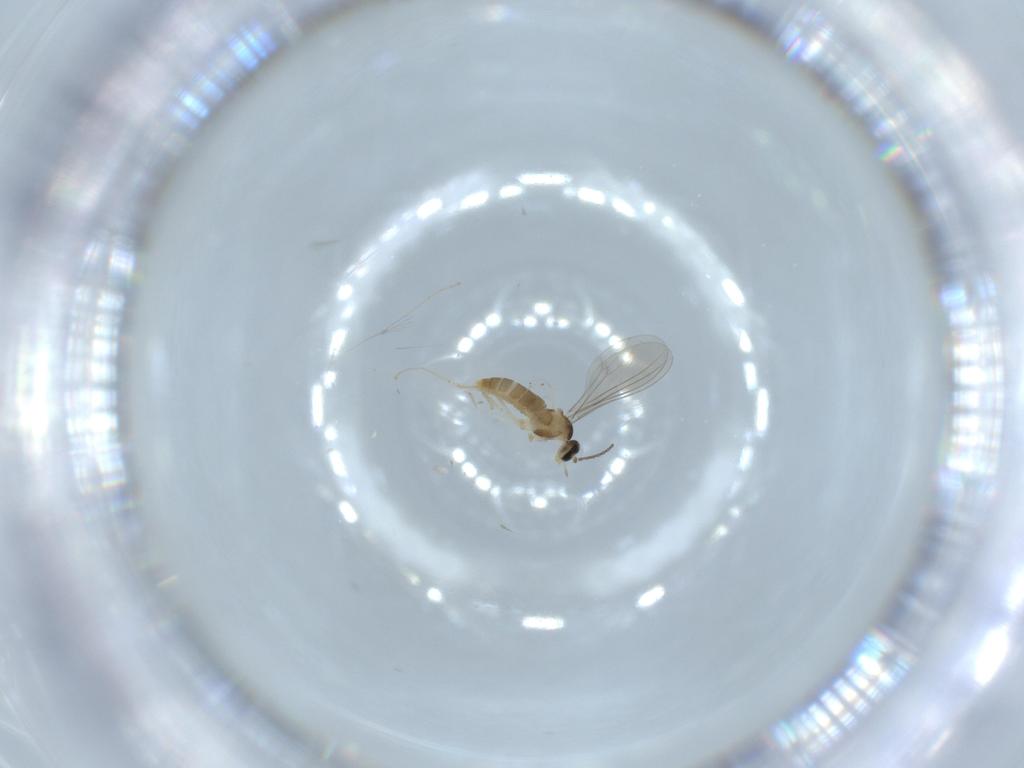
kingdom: Animalia
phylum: Arthropoda
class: Insecta
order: Diptera
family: Cecidomyiidae
